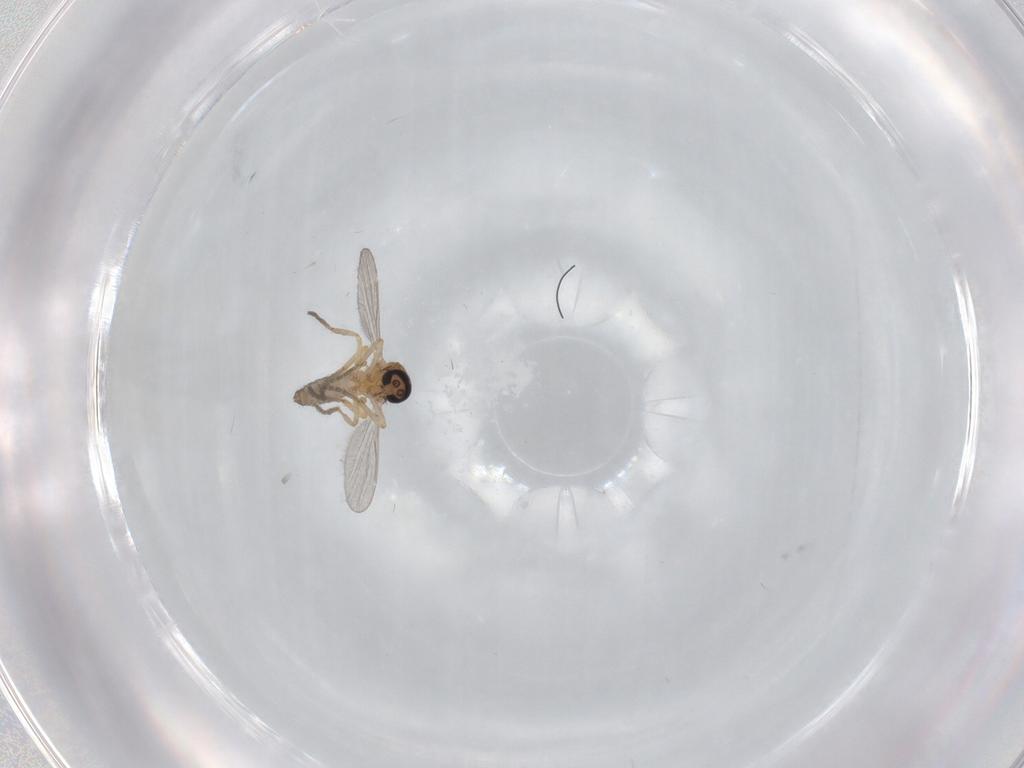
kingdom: Animalia
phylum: Arthropoda
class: Insecta
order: Diptera
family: Ceratopogonidae
